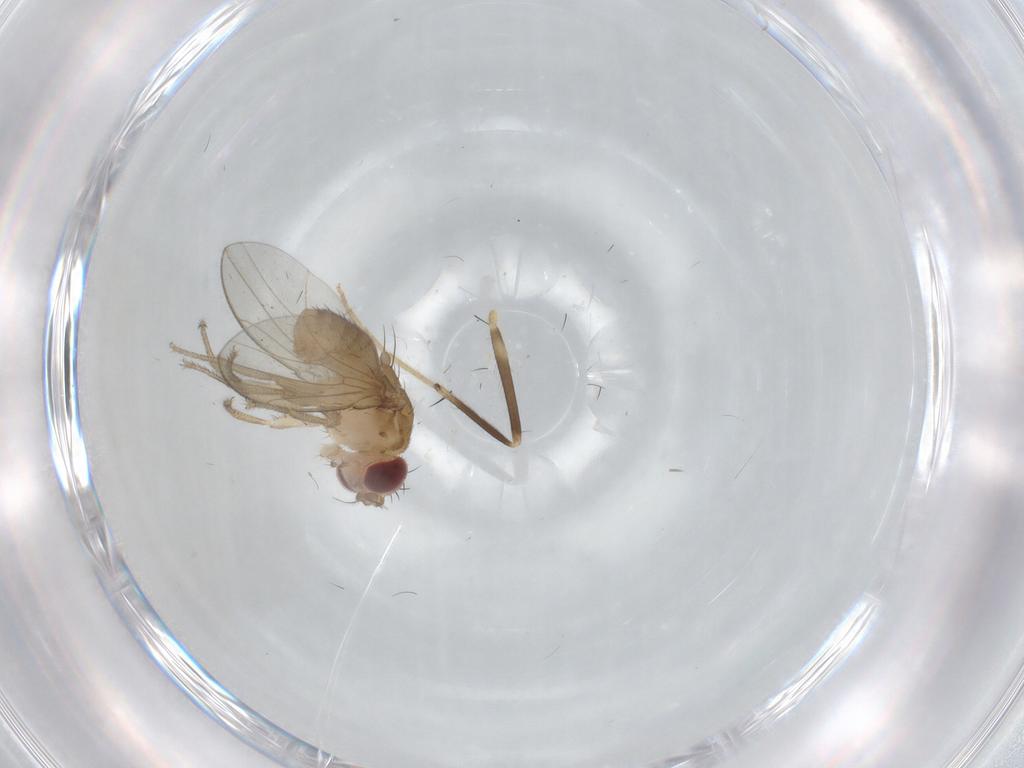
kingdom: Animalia
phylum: Arthropoda
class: Insecta
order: Diptera
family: Drosophilidae
